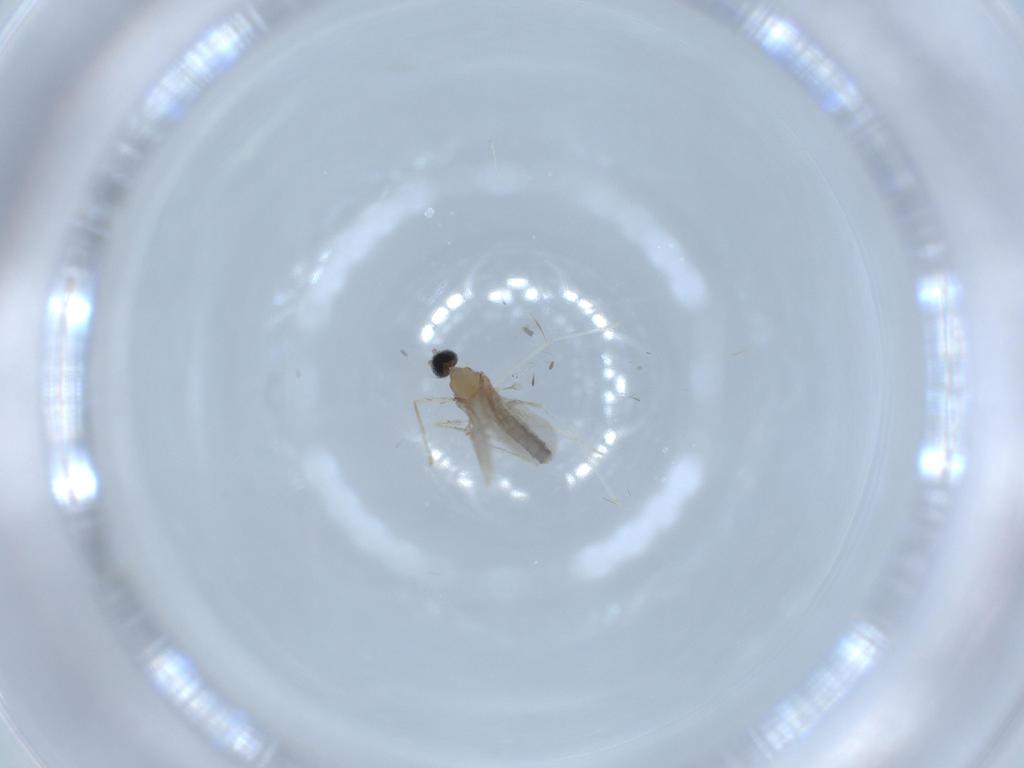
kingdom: Animalia
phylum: Arthropoda
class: Insecta
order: Diptera
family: Cecidomyiidae
